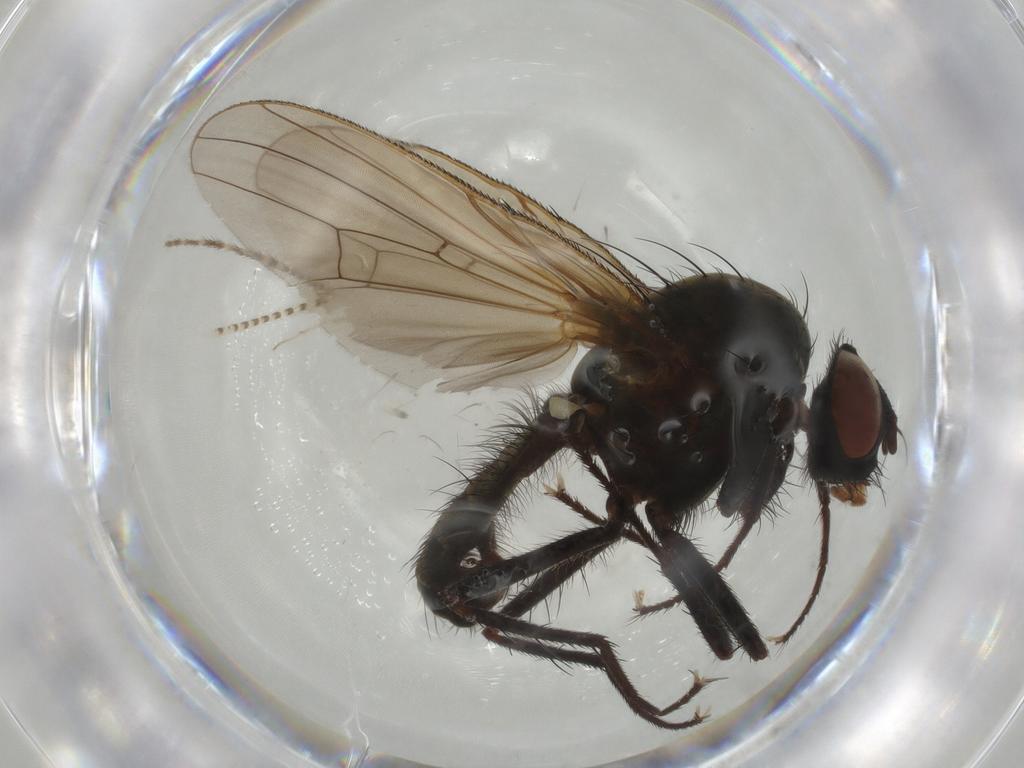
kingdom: Animalia
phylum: Arthropoda
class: Insecta
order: Diptera
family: Anthomyiidae
